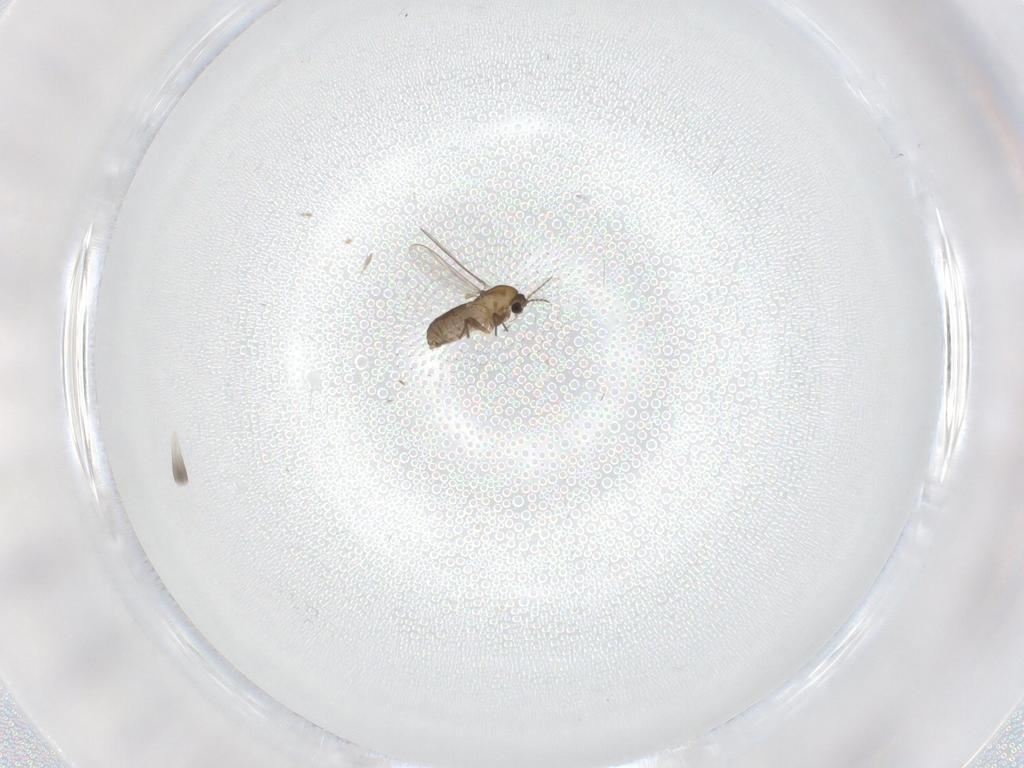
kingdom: Animalia
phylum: Arthropoda
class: Insecta
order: Diptera
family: Chironomidae
